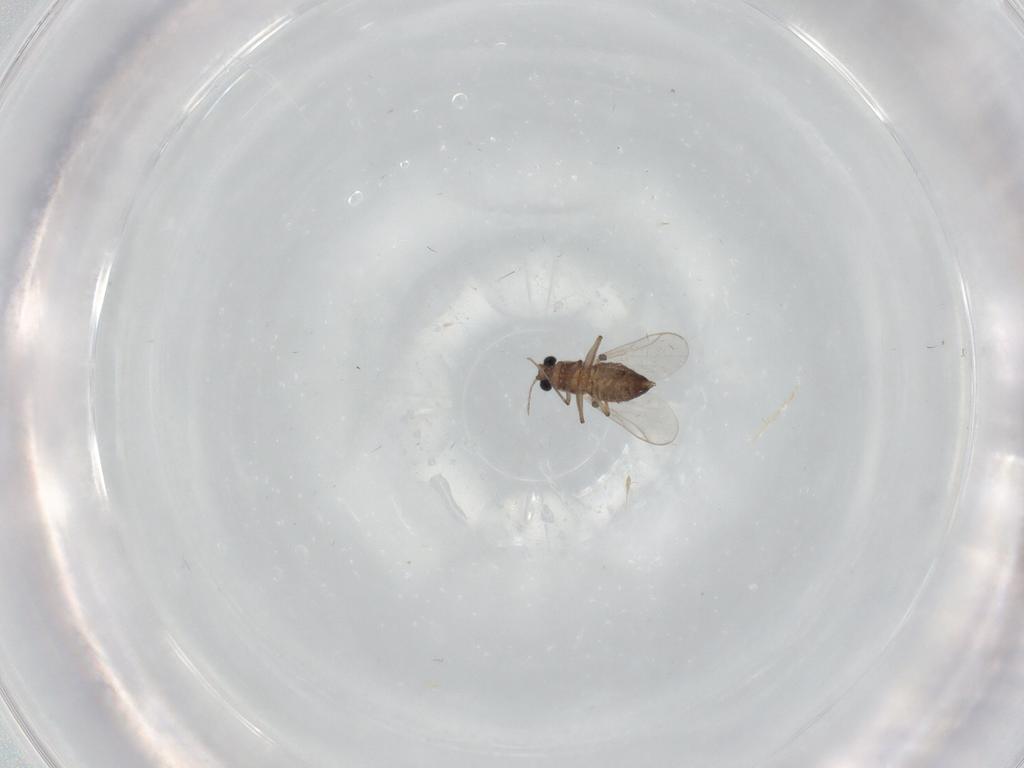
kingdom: Animalia
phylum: Arthropoda
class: Insecta
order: Diptera
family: Chironomidae
